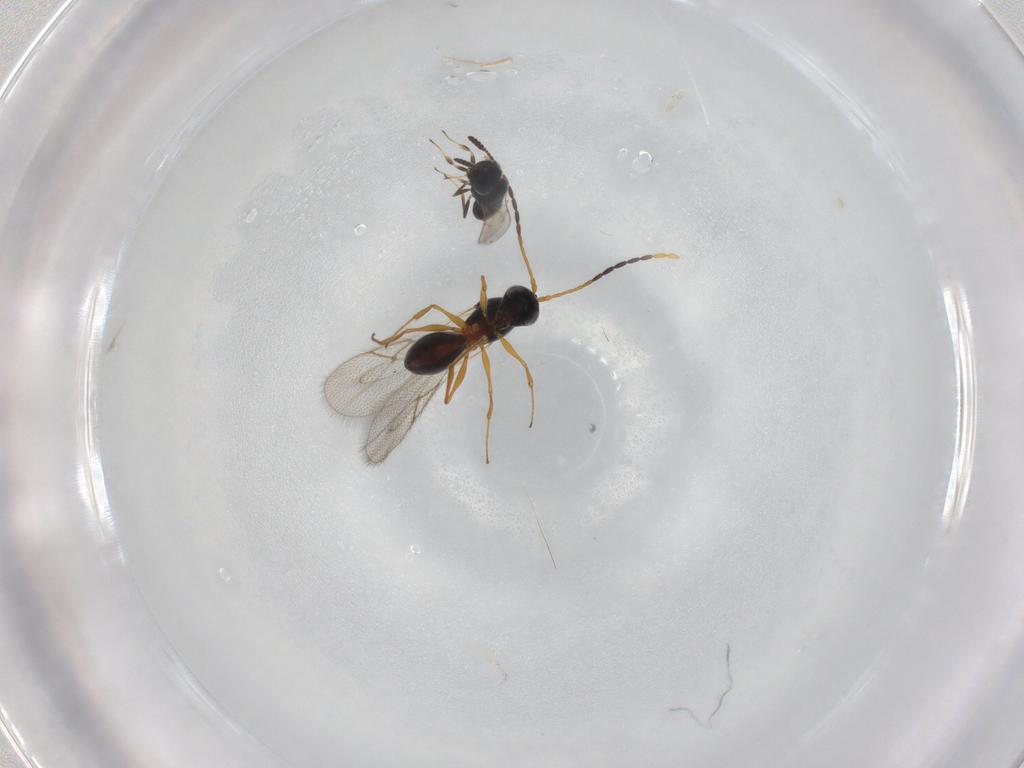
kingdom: Animalia
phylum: Arthropoda
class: Insecta
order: Hymenoptera
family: Scelionidae
